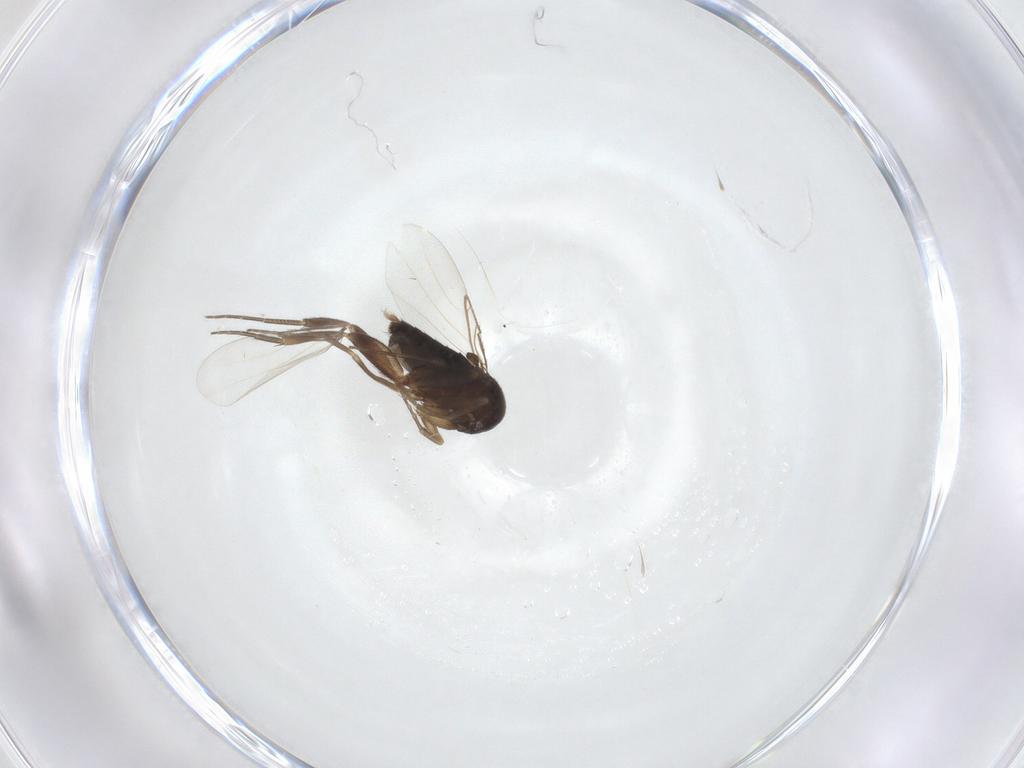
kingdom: Animalia
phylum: Arthropoda
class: Insecta
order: Diptera
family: Phoridae
